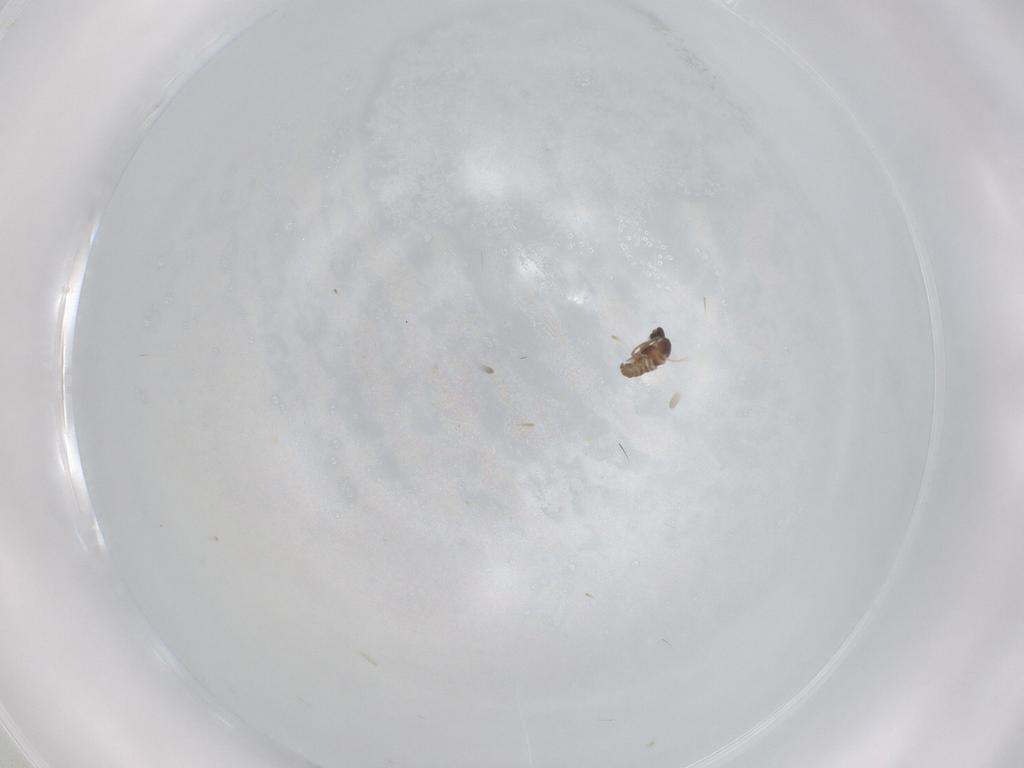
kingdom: Animalia
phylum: Arthropoda
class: Insecta
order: Diptera
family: Cecidomyiidae
